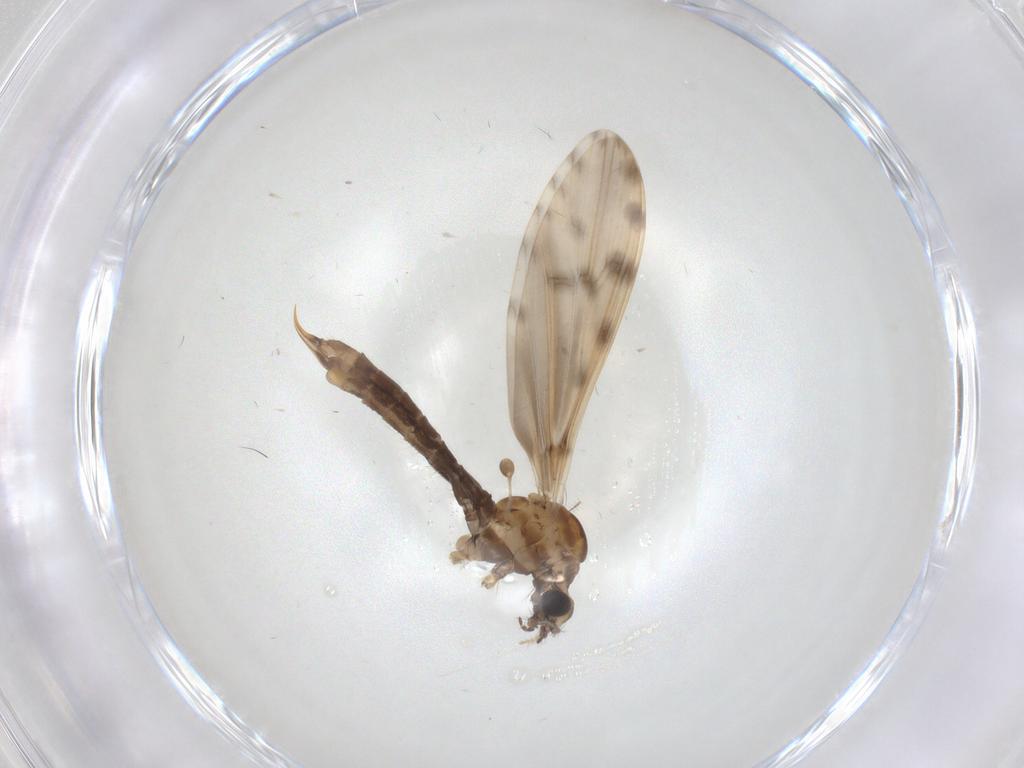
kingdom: Animalia
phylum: Arthropoda
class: Insecta
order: Diptera
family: Limoniidae
